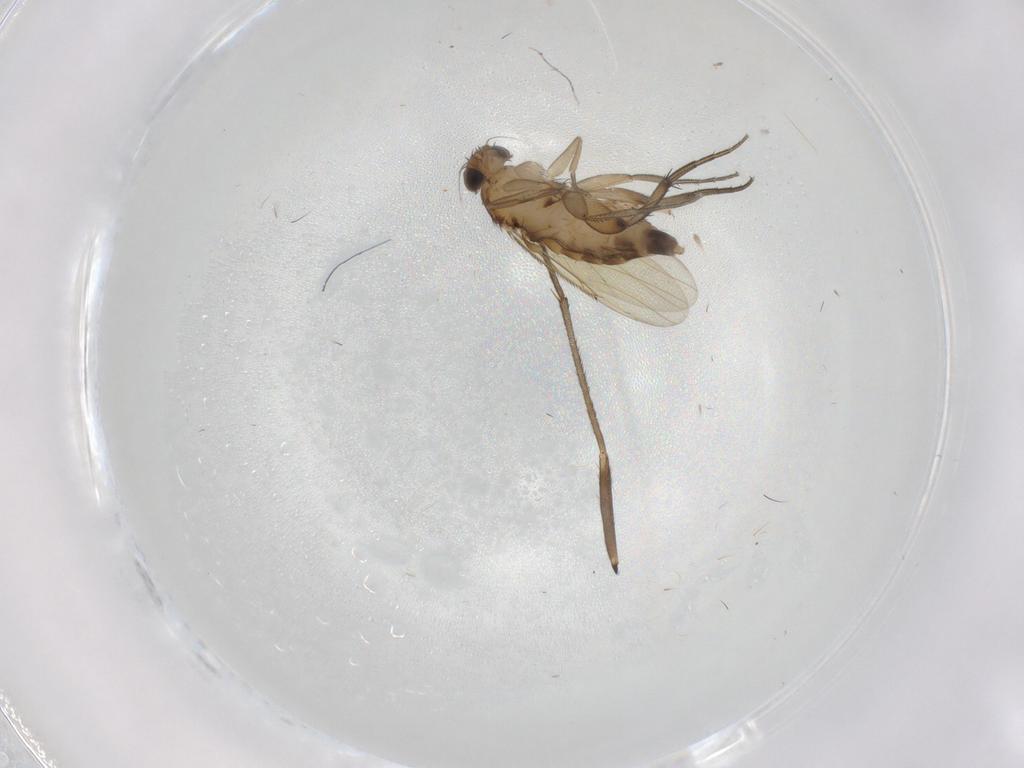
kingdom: Animalia
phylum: Arthropoda
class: Insecta
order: Diptera
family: Phoridae
